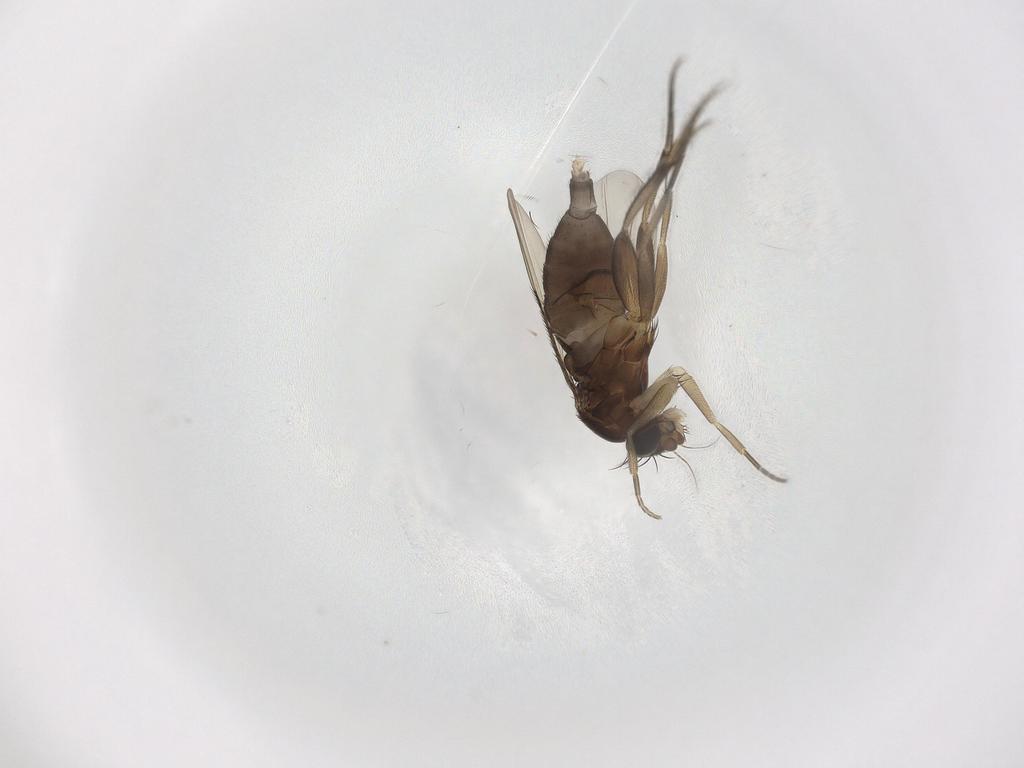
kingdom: Animalia
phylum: Arthropoda
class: Insecta
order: Diptera
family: Phoridae
